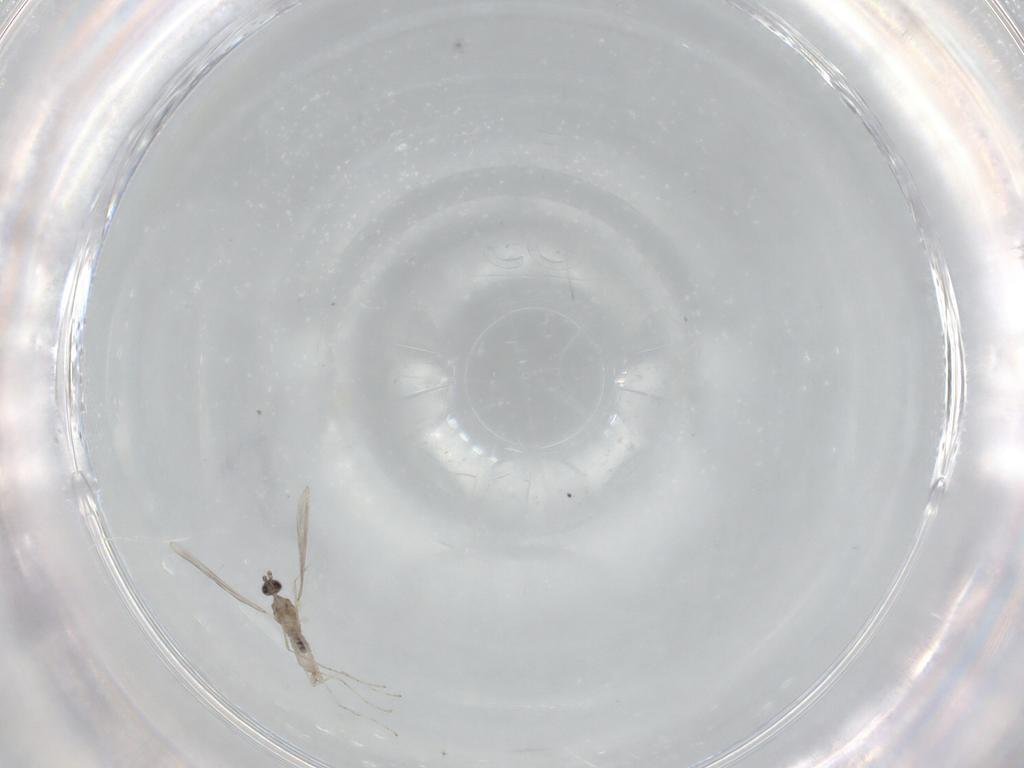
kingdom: Animalia
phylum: Arthropoda
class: Insecta
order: Diptera
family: Cecidomyiidae
